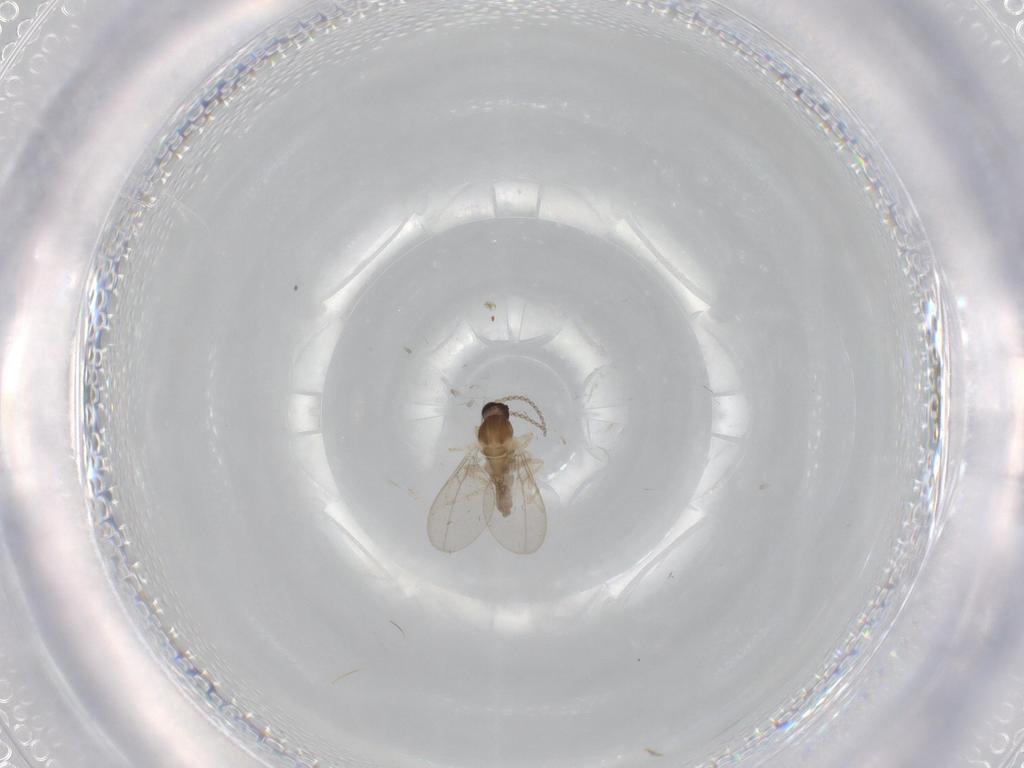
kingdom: Animalia
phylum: Arthropoda
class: Insecta
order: Diptera
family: Cecidomyiidae
